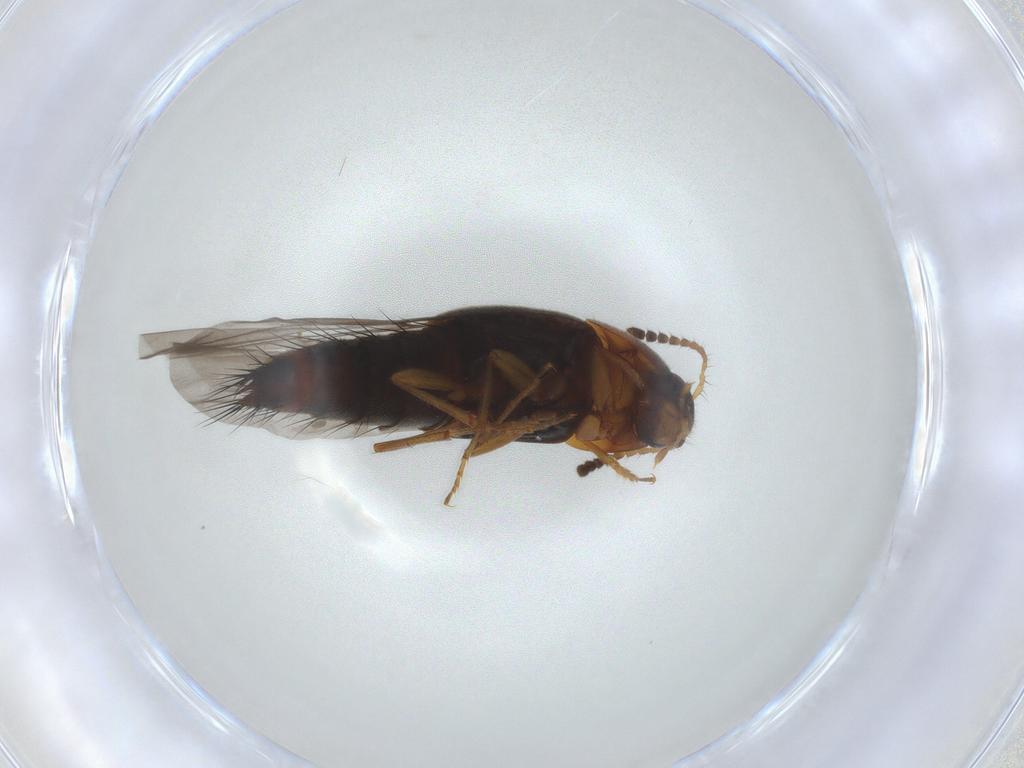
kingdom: Animalia
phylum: Arthropoda
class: Insecta
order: Coleoptera
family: Staphylinidae
